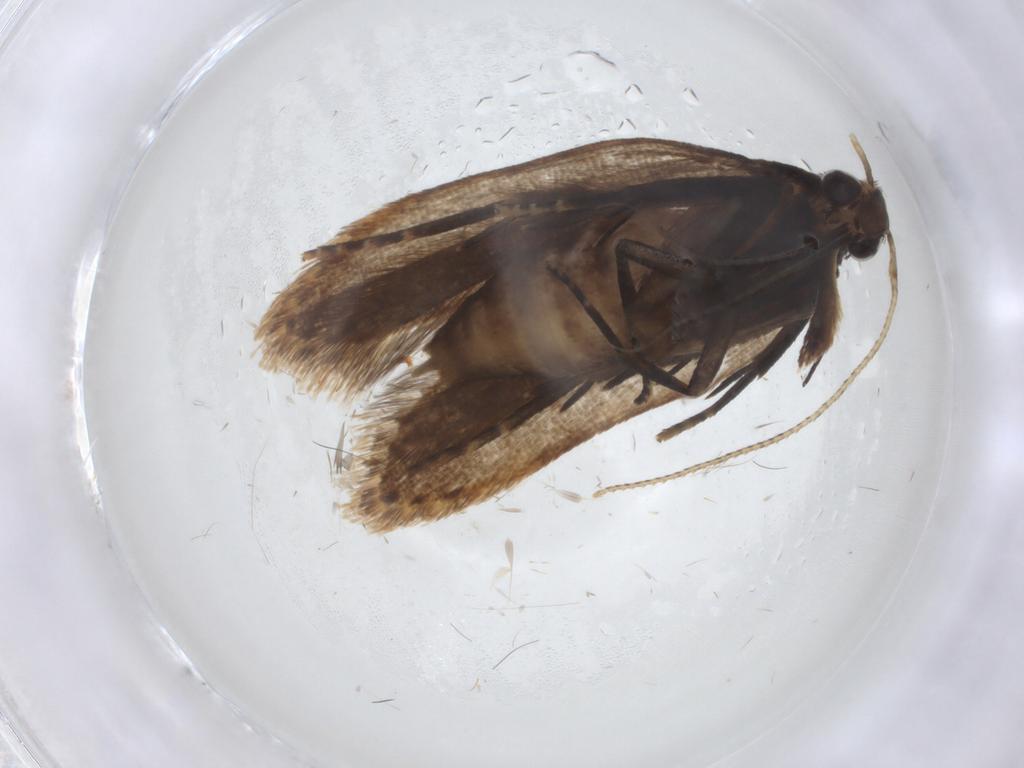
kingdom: Animalia
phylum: Arthropoda
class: Insecta
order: Lepidoptera
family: Gelechiidae
